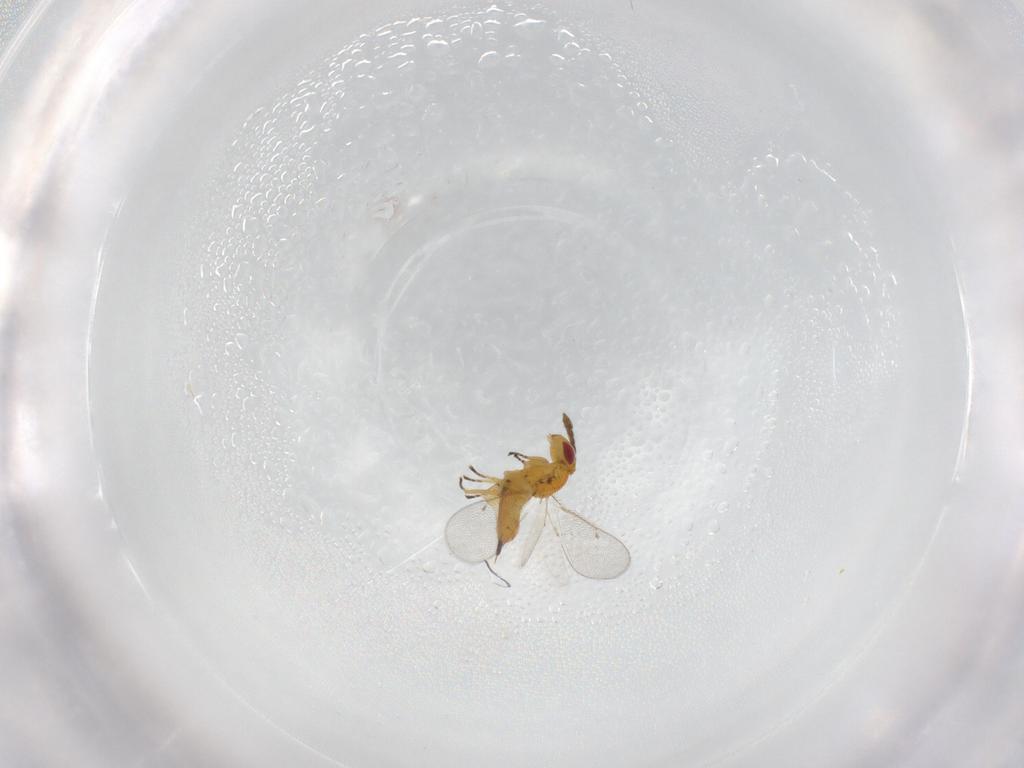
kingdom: Animalia
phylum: Arthropoda
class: Insecta
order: Hymenoptera
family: Eulophidae
